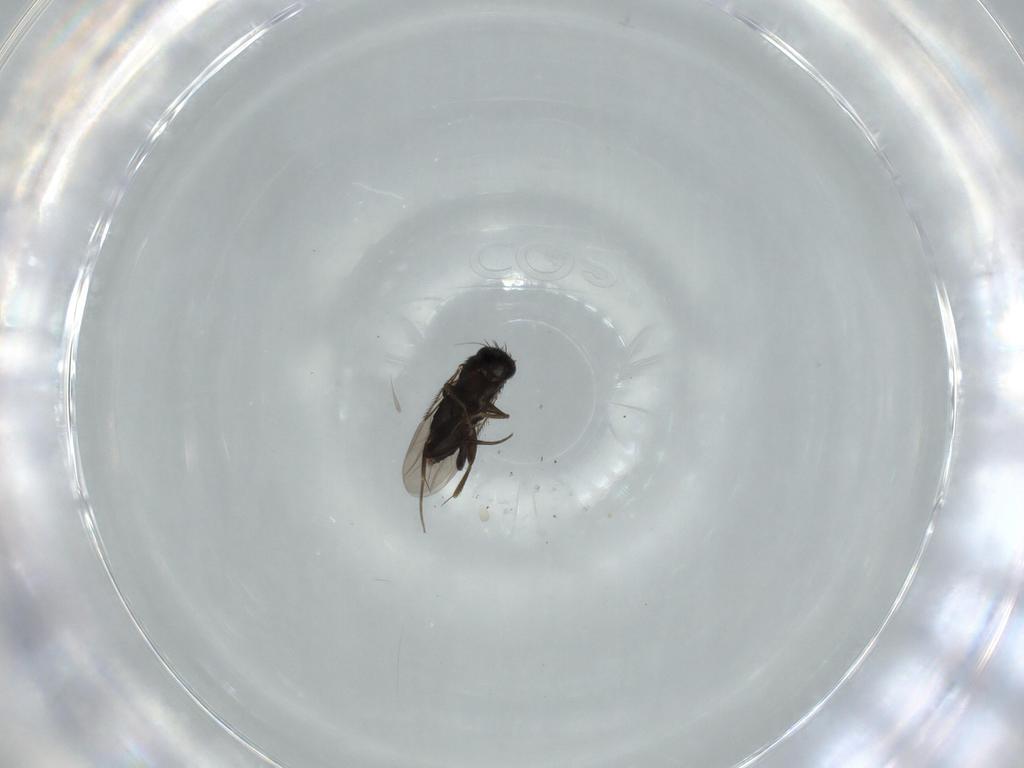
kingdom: Animalia
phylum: Arthropoda
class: Insecta
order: Diptera
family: Phoridae
